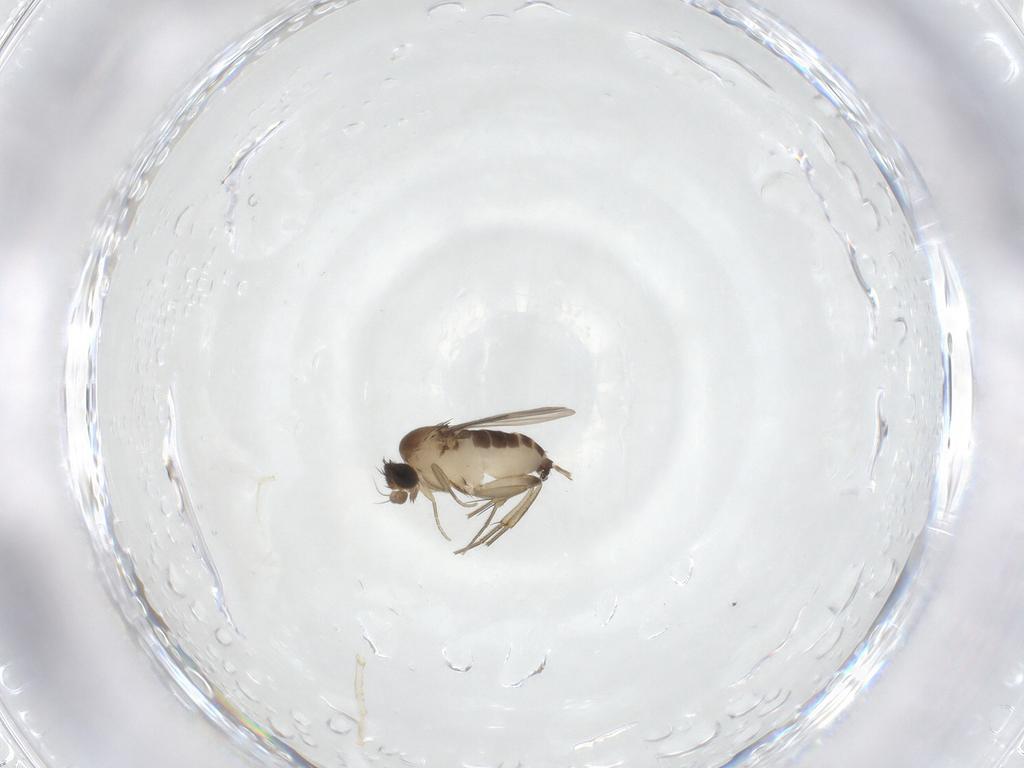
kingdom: Animalia
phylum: Arthropoda
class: Insecta
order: Diptera
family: Phoridae
